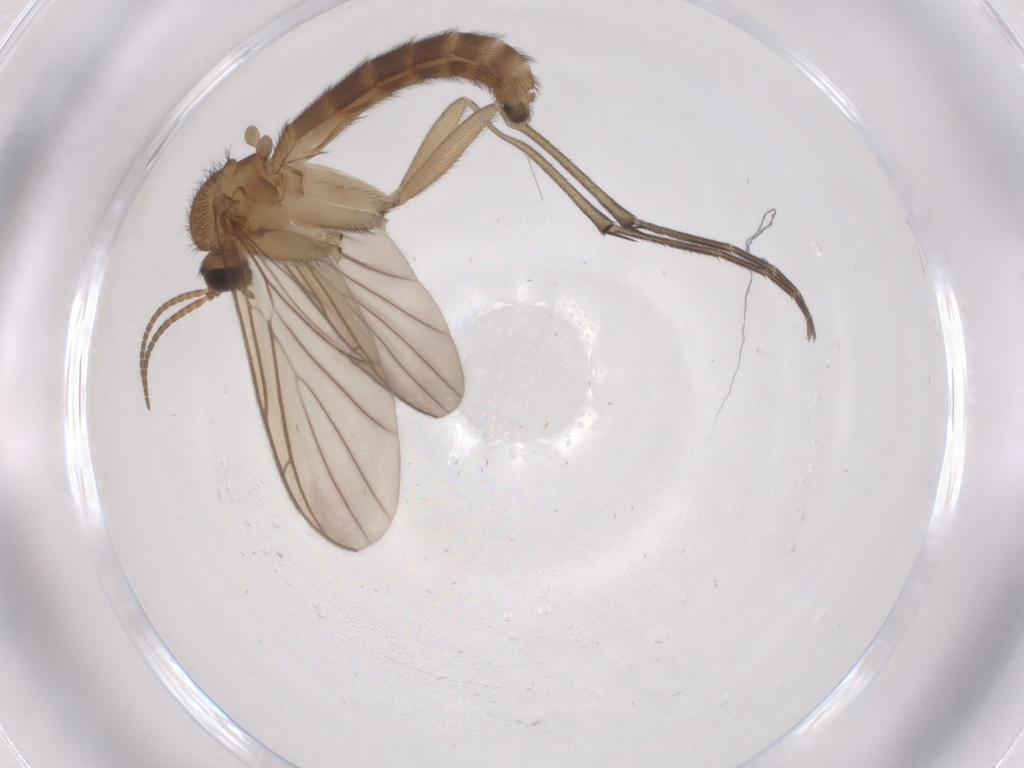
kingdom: Animalia
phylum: Arthropoda
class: Insecta
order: Diptera
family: Keroplatidae
